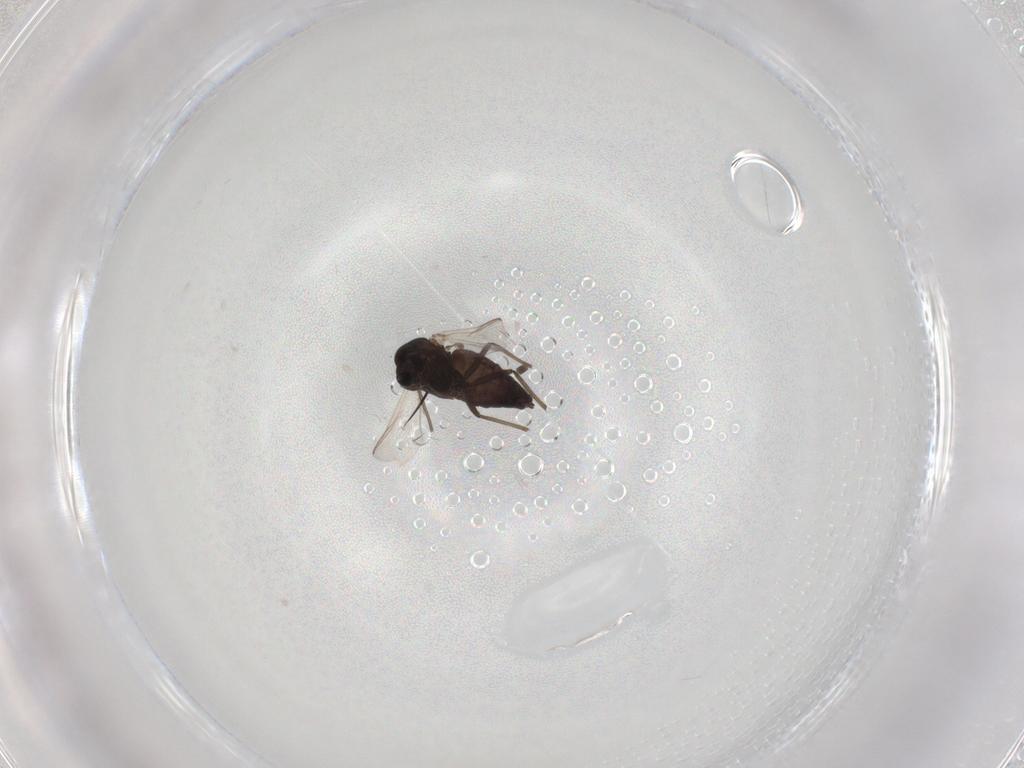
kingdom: Animalia
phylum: Arthropoda
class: Insecta
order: Diptera
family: Chironomidae
